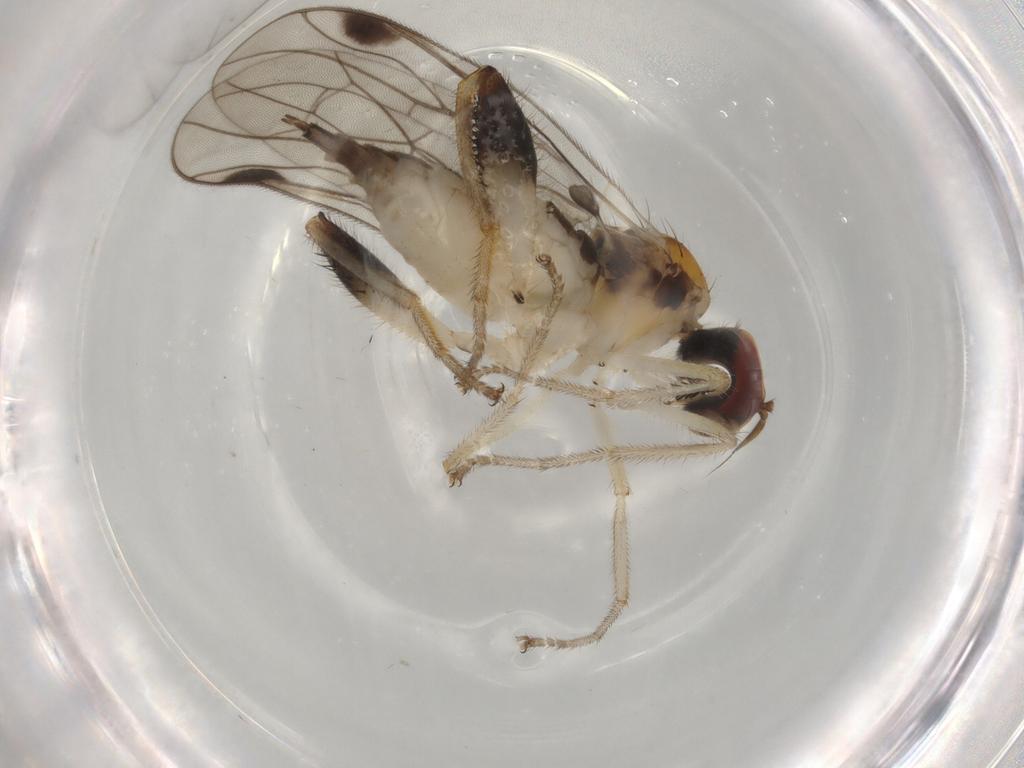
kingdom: Animalia
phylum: Arthropoda
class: Insecta
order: Diptera
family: Hybotidae
